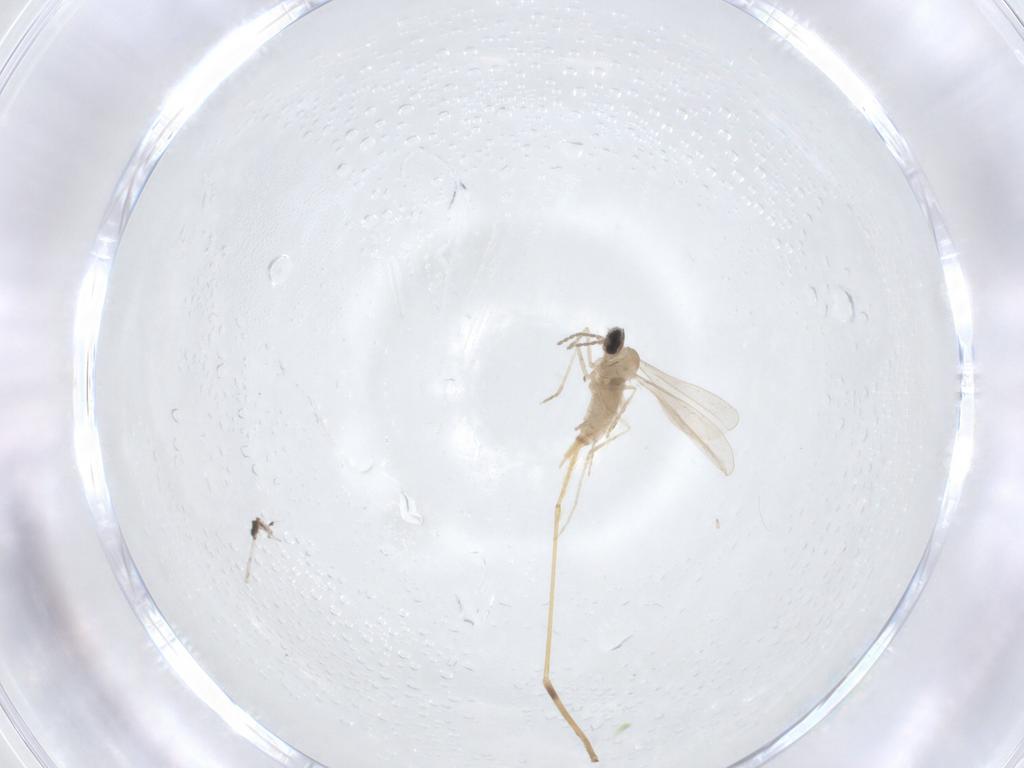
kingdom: Animalia
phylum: Arthropoda
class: Insecta
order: Diptera
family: Cecidomyiidae
